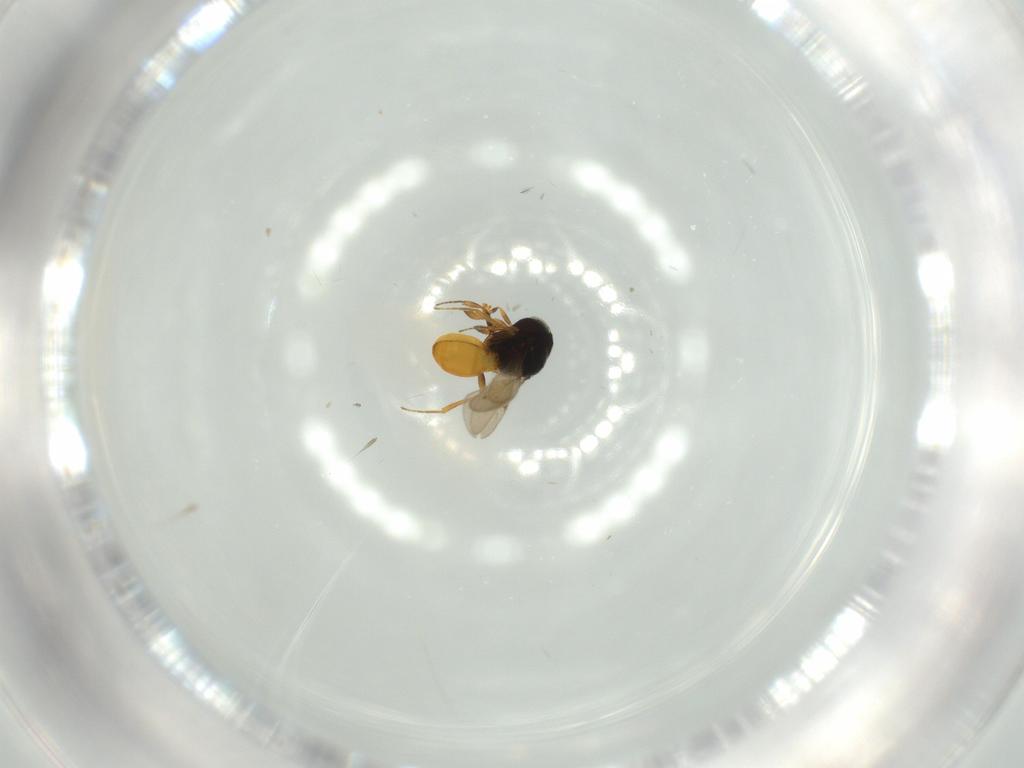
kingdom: Animalia
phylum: Arthropoda
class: Insecta
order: Hymenoptera
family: Scelionidae
